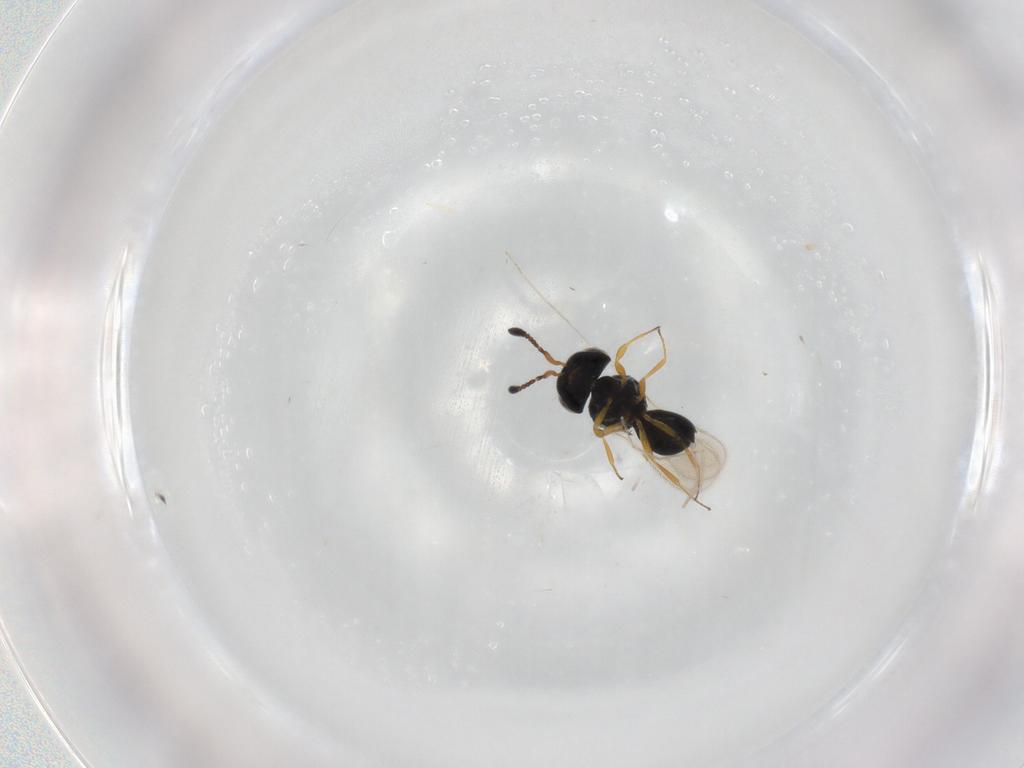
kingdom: Animalia
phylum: Arthropoda
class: Insecta
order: Hymenoptera
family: Scelionidae
